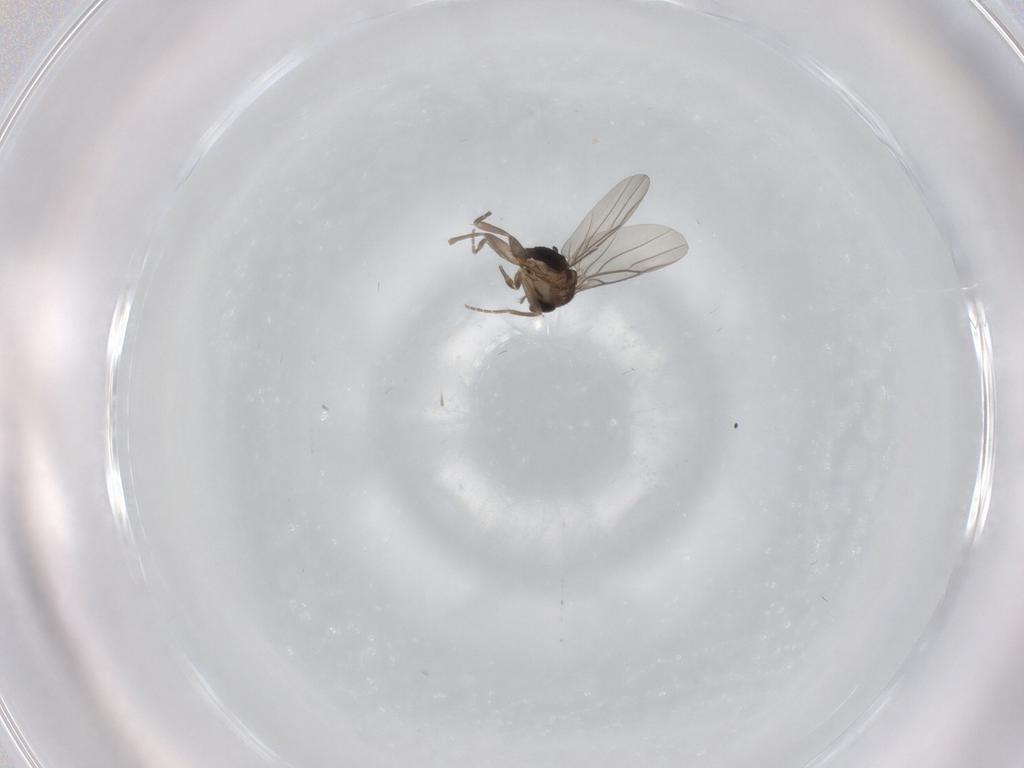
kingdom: Animalia
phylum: Arthropoda
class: Insecta
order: Diptera
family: Phoridae
